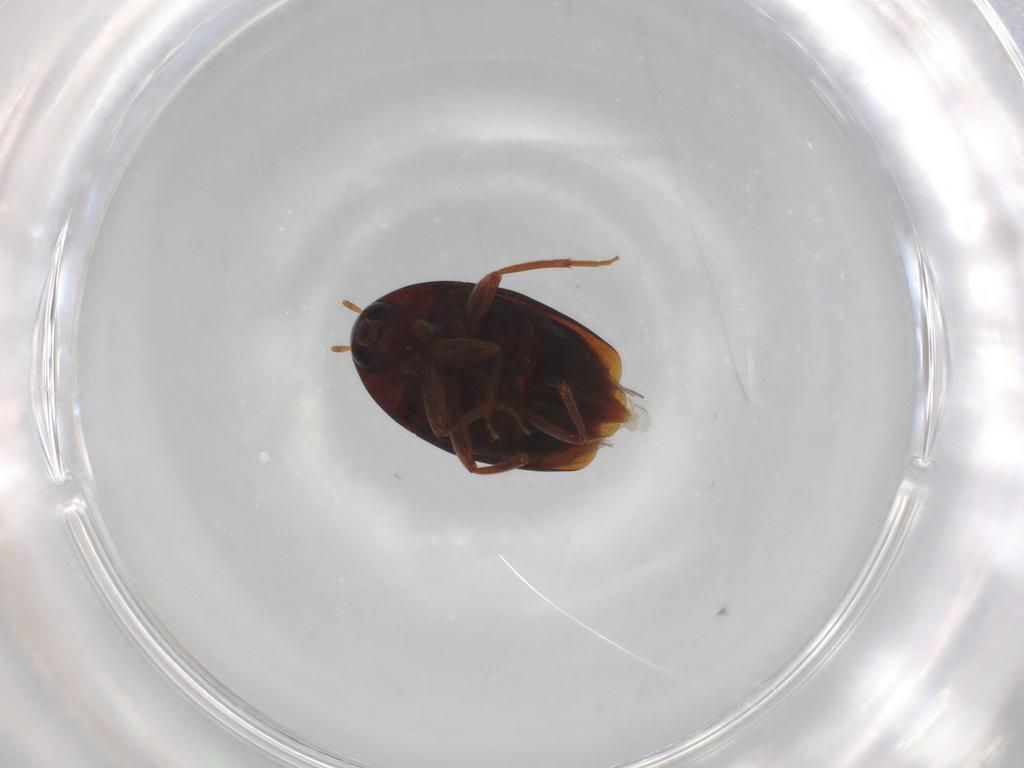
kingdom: Animalia
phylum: Arthropoda
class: Insecta
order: Coleoptera
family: Staphylinidae
